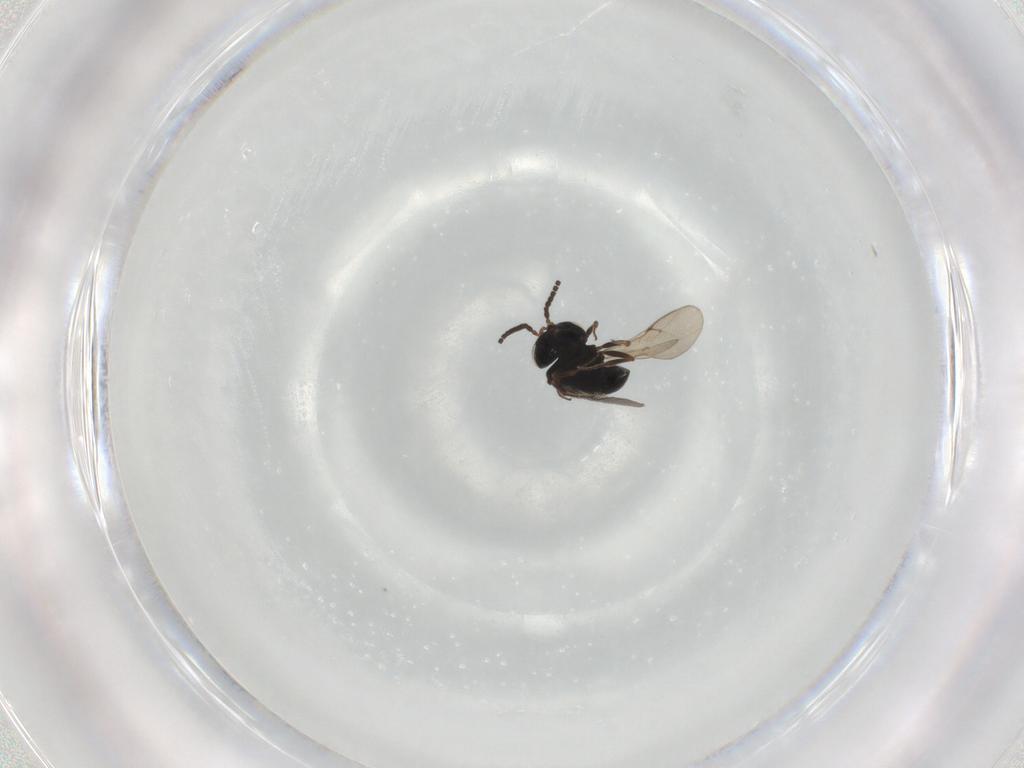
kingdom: Animalia
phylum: Arthropoda
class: Insecta
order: Hymenoptera
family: Scelionidae
